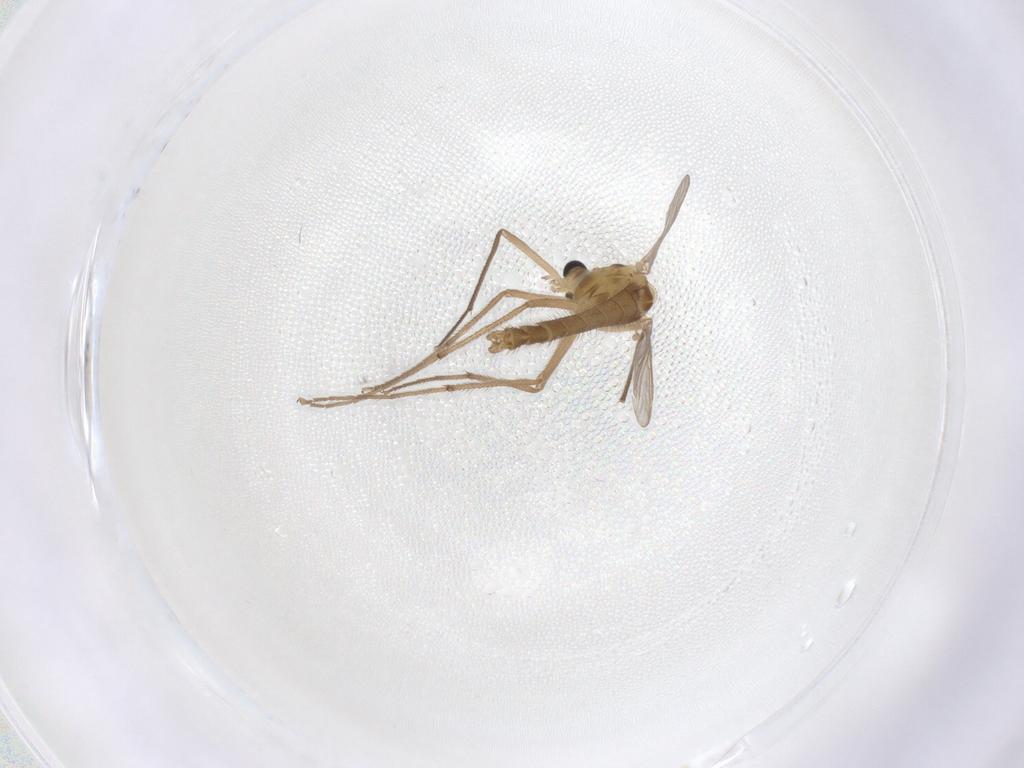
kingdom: Animalia
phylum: Arthropoda
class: Insecta
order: Diptera
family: Chironomidae
